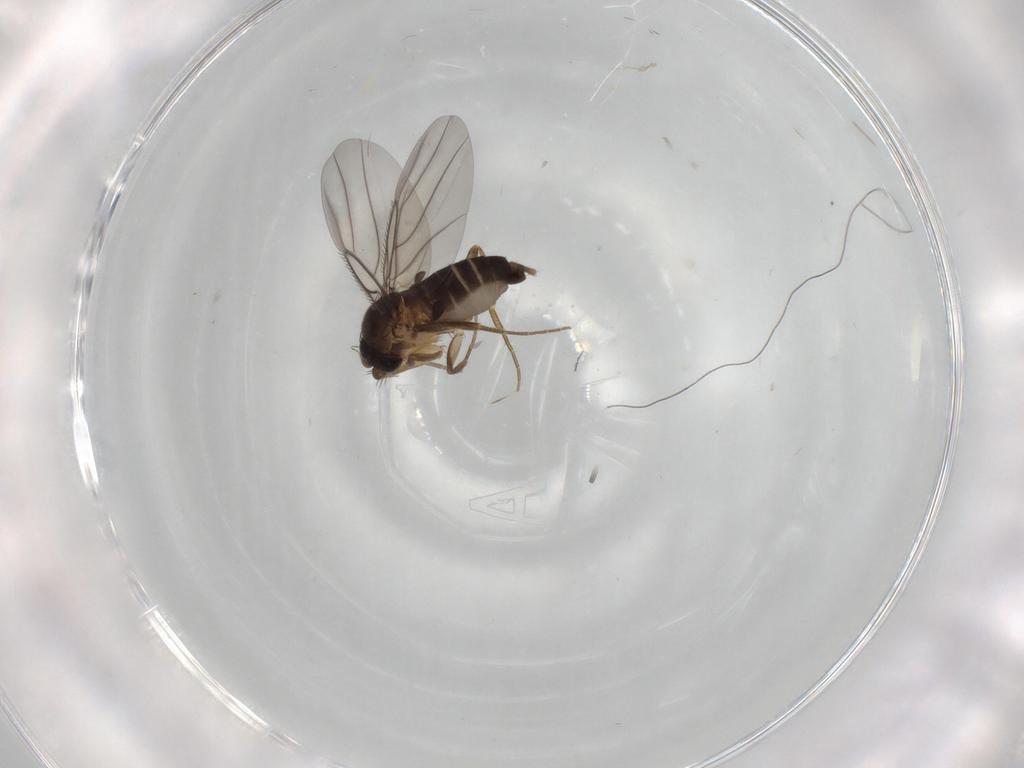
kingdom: Animalia
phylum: Arthropoda
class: Insecta
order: Diptera
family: Phoridae
